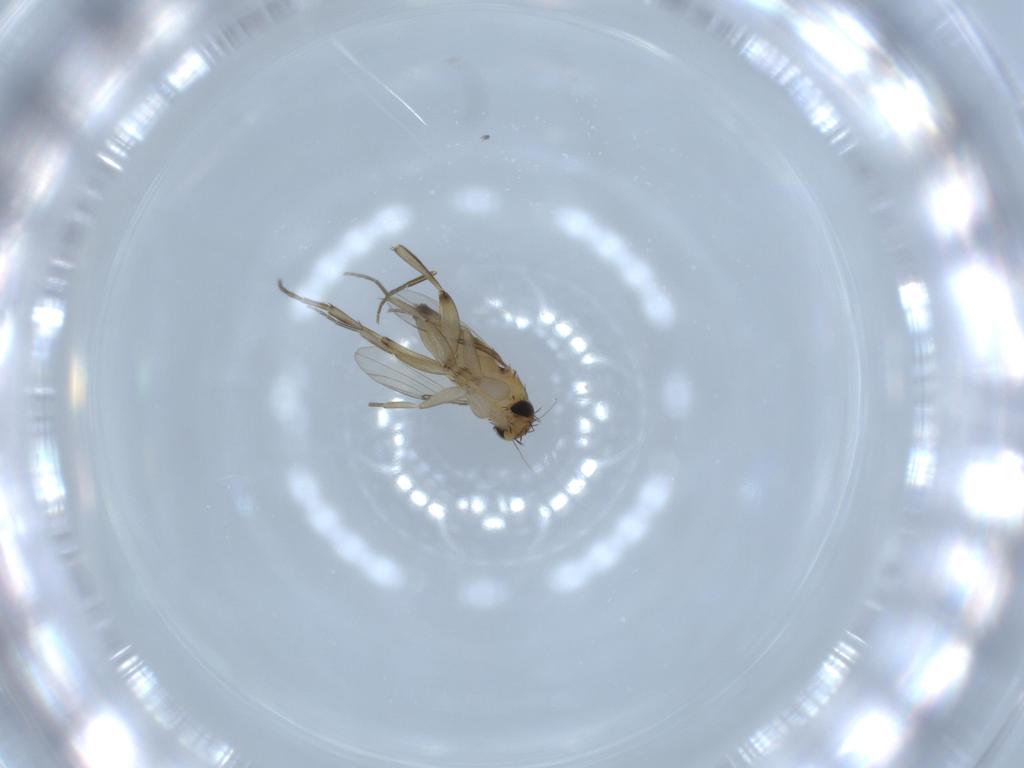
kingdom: Animalia
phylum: Arthropoda
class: Insecta
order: Diptera
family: Phoridae
